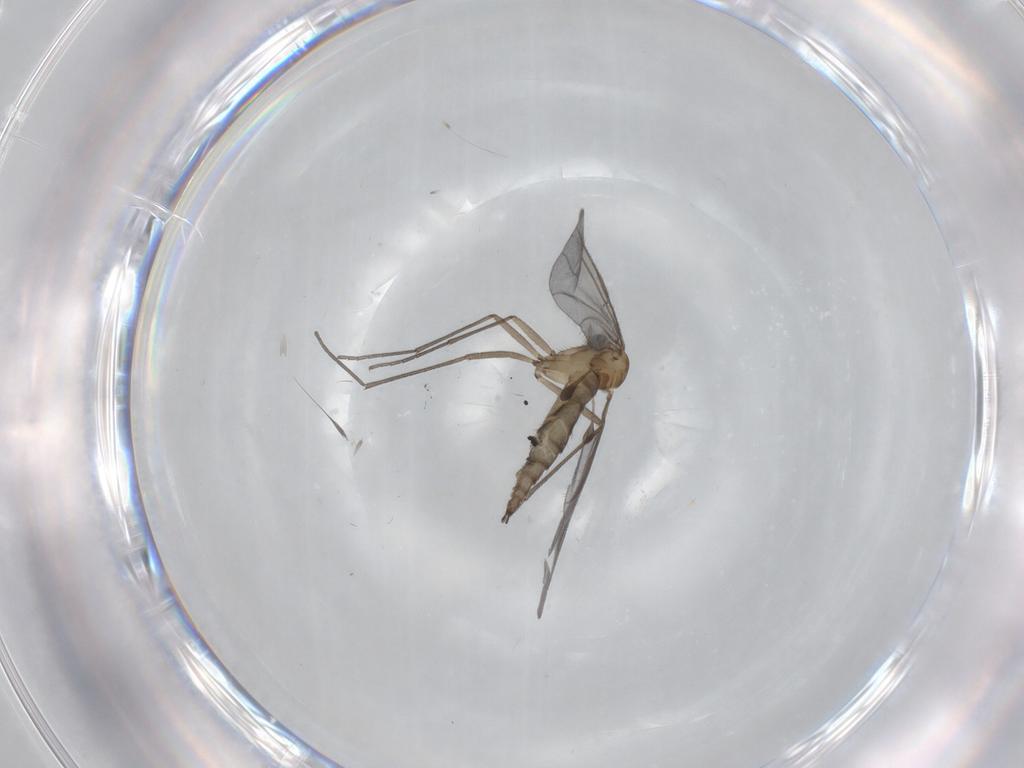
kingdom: Animalia
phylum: Arthropoda
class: Insecta
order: Diptera
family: Sciaridae
